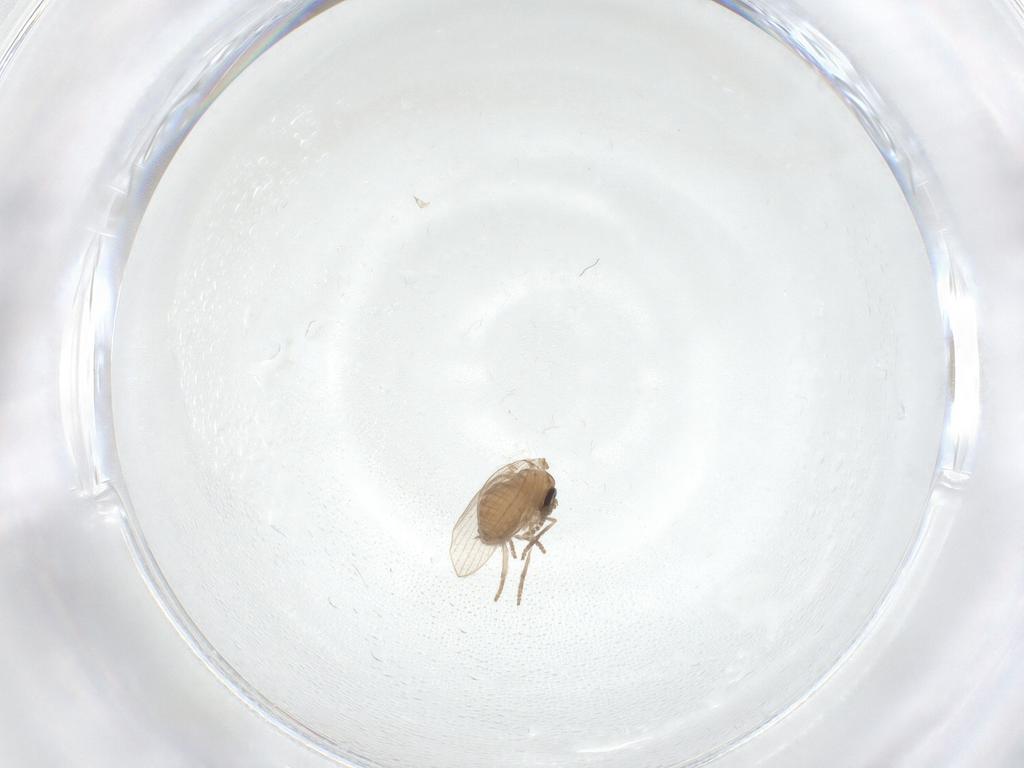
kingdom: Animalia
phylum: Arthropoda
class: Insecta
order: Diptera
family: Psychodidae
